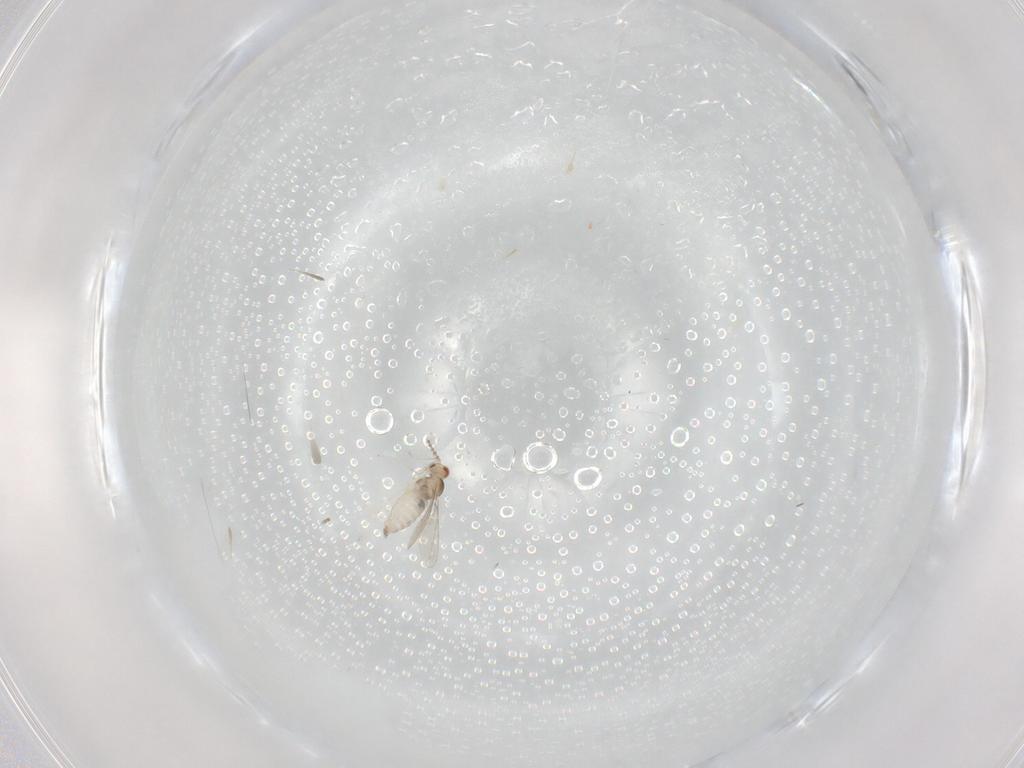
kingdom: Animalia
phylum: Arthropoda
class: Insecta
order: Diptera
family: Cecidomyiidae
